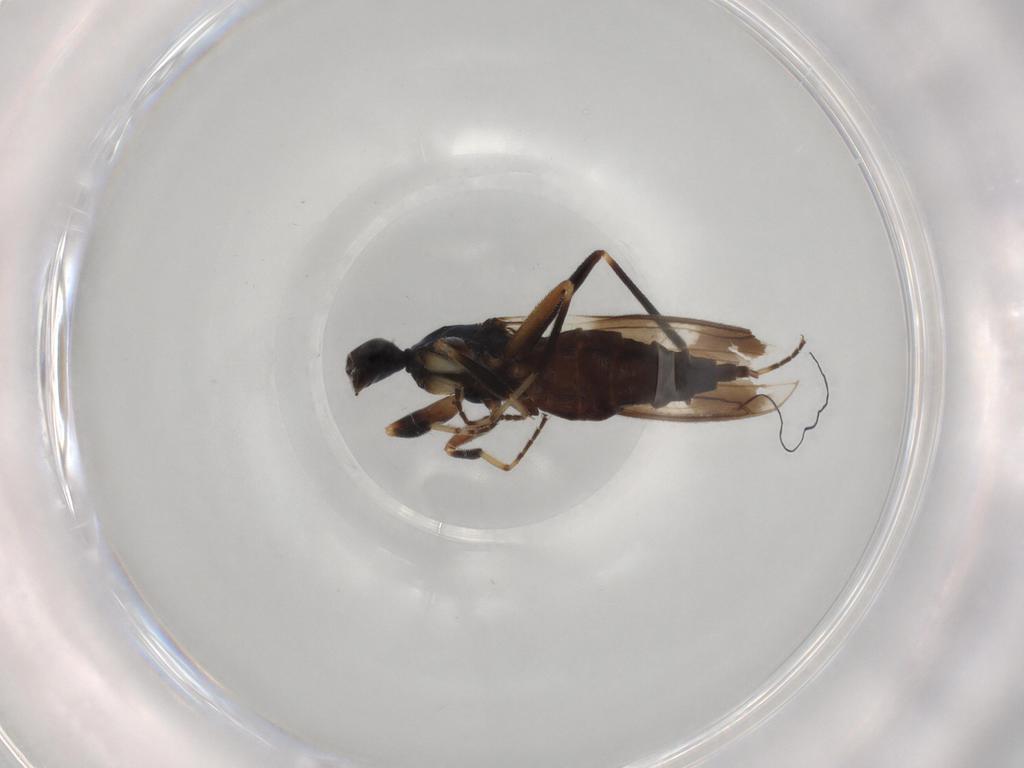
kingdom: Animalia
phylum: Arthropoda
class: Insecta
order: Diptera
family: Hybotidae
